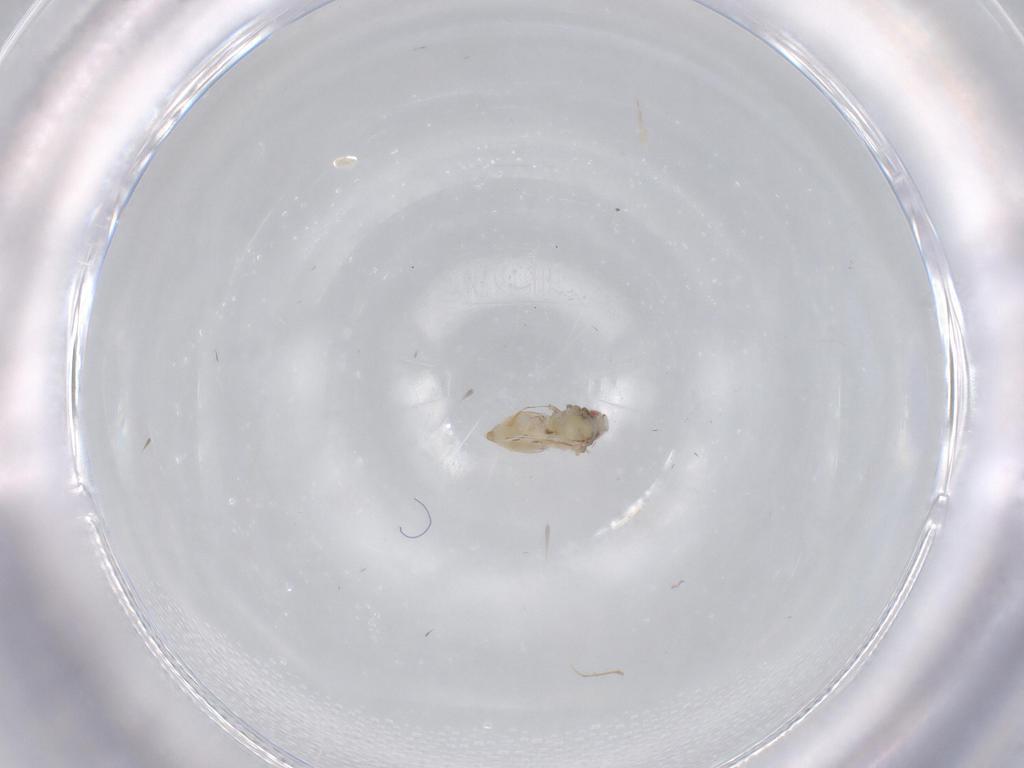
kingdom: Animalia
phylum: Arthropoda
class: Insecta
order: Hemiptera
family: Aleyrodidae
